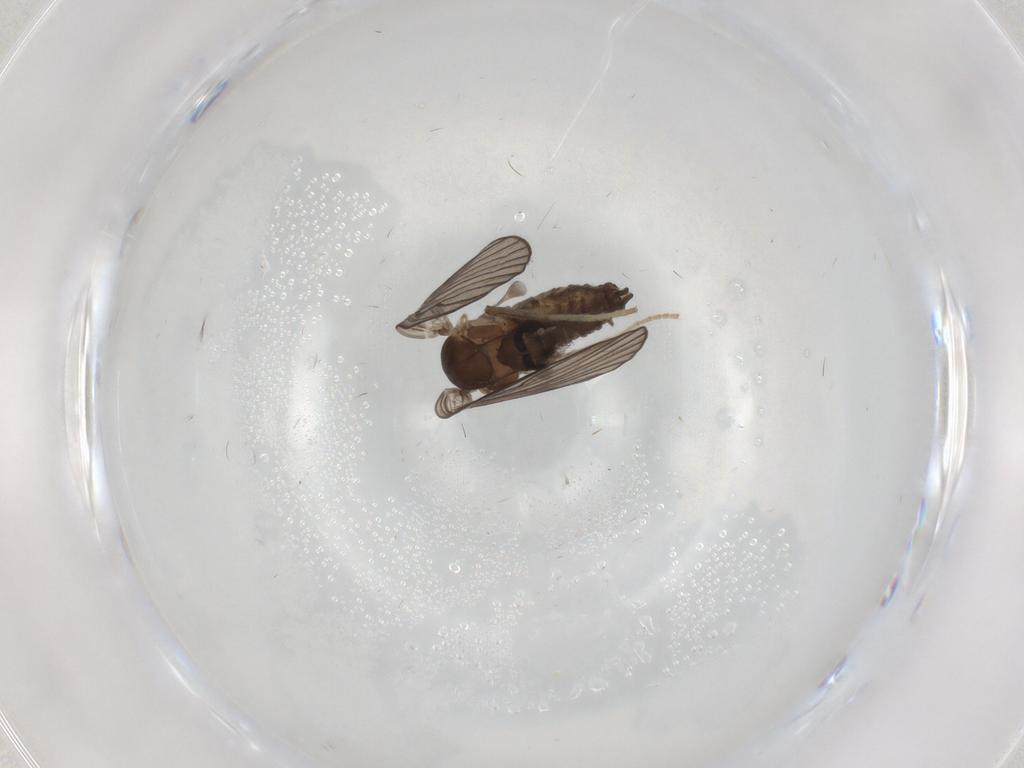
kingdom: Animalia
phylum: Arthropoda
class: Insecta
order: Diptera
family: Psychodidae
